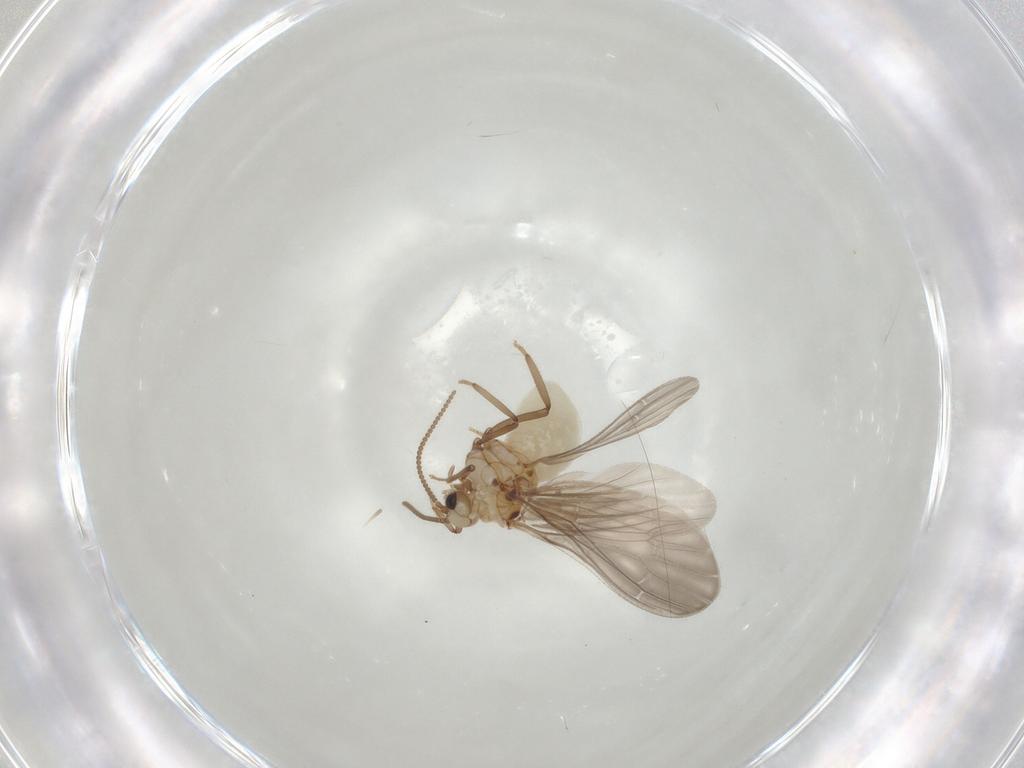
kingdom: Animalia
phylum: Arthropoda
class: Insecta
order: Neuroptera
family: Coniopterygidae
